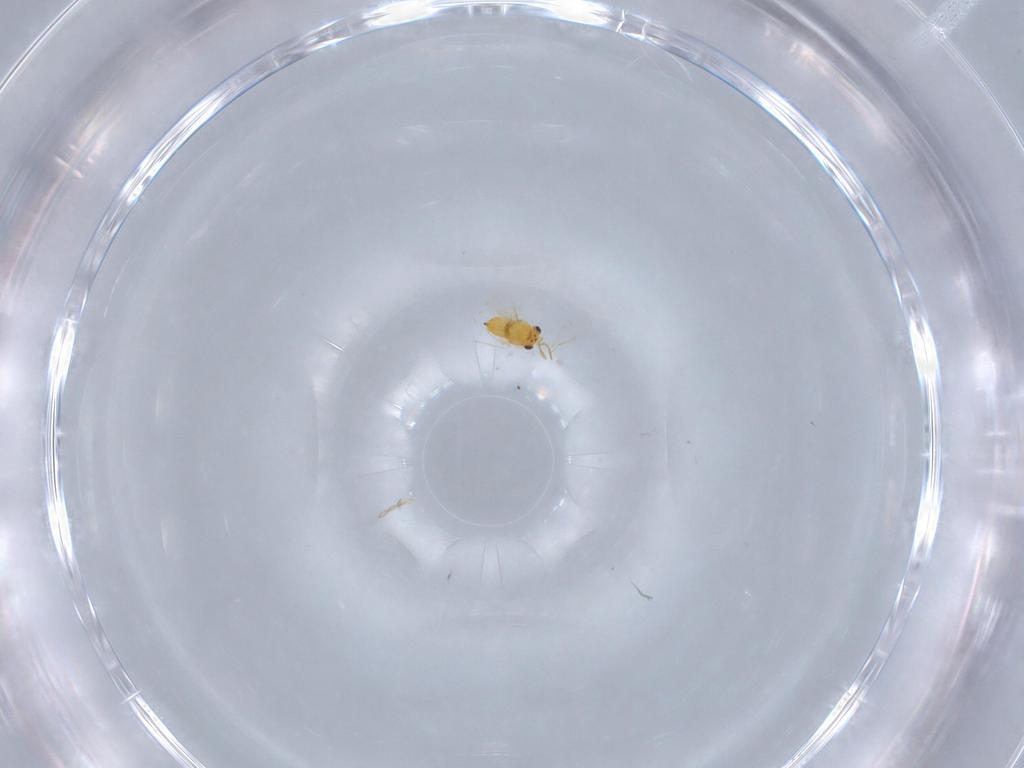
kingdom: Animalia
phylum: Arthropoda
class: Insecta
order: Hymenoptera
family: Aphelinidae
